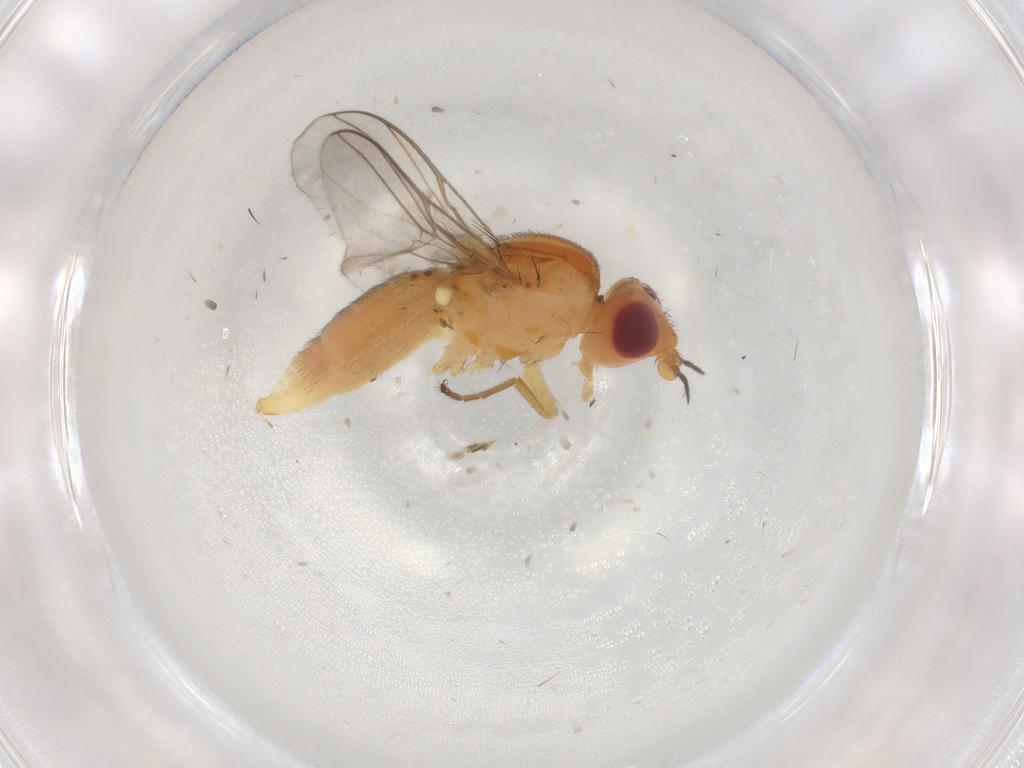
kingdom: Animalia
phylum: Arthropoda
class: Insecta
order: Diptera
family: Chloropidae
